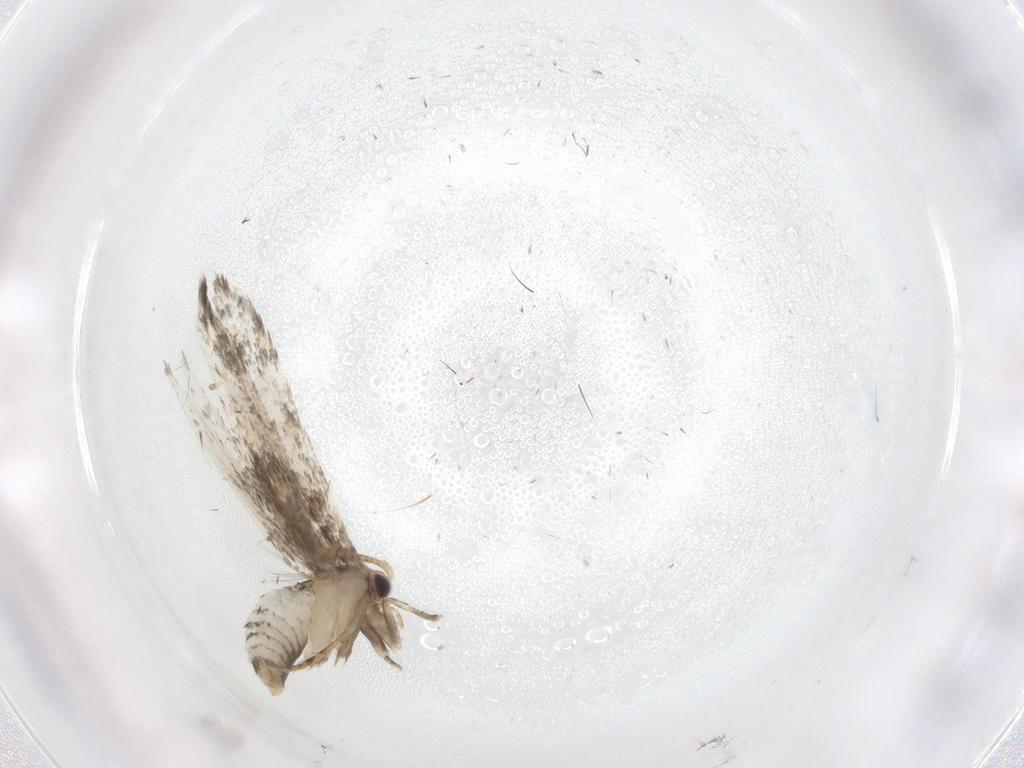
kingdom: Animalia
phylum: Arthropoda
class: Insecta
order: Lepidoptera
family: Tineidae
